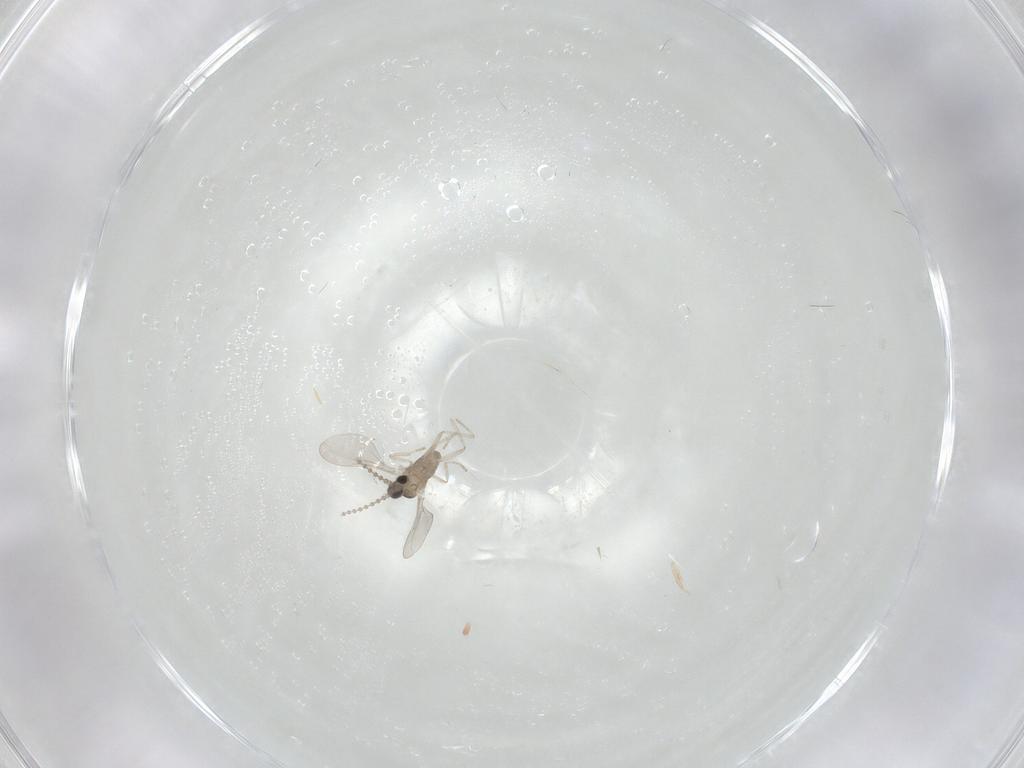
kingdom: Animalia
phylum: Arthropoda
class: Insecta
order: Diptera
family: Cecidomyiidae
